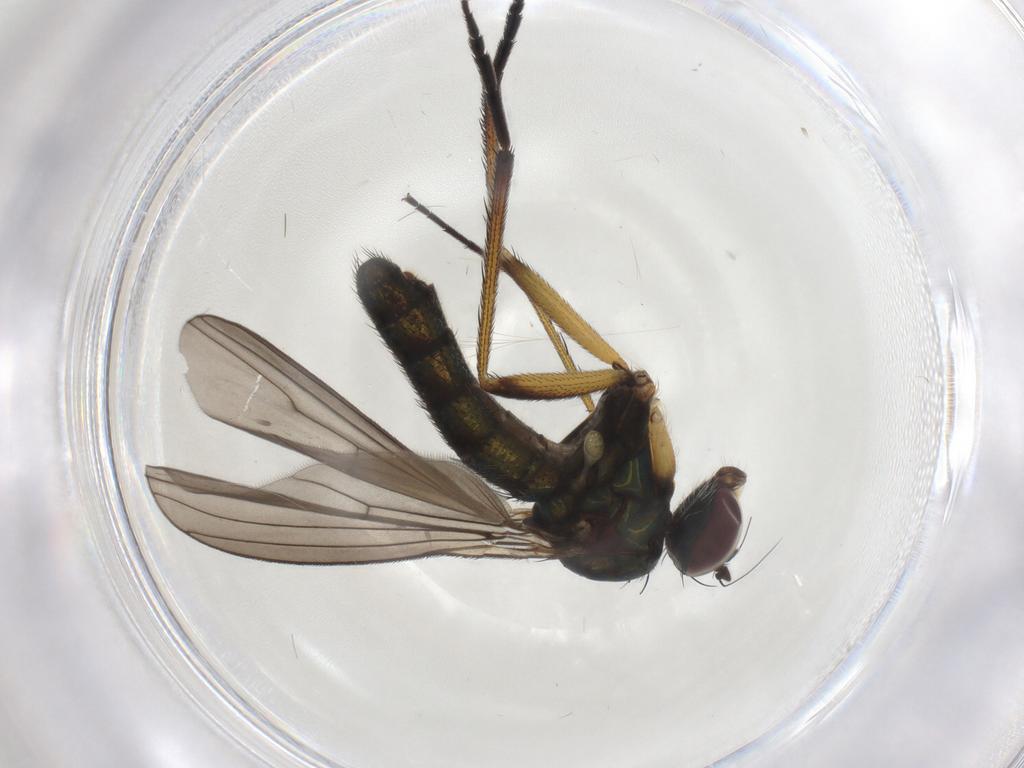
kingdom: Animalia
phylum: Arthropoda
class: Insecta
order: Diptera
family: Dolichopodidae
